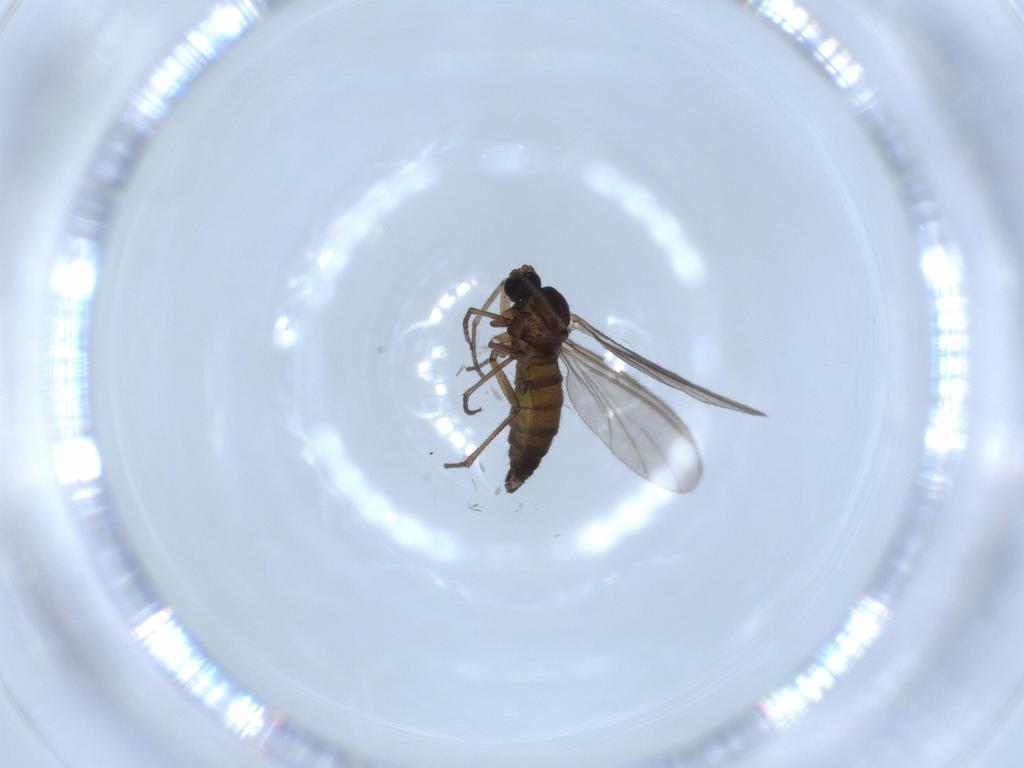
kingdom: Animalia
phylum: Arthropoda
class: Insecta
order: Diptera
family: Sciaridae
